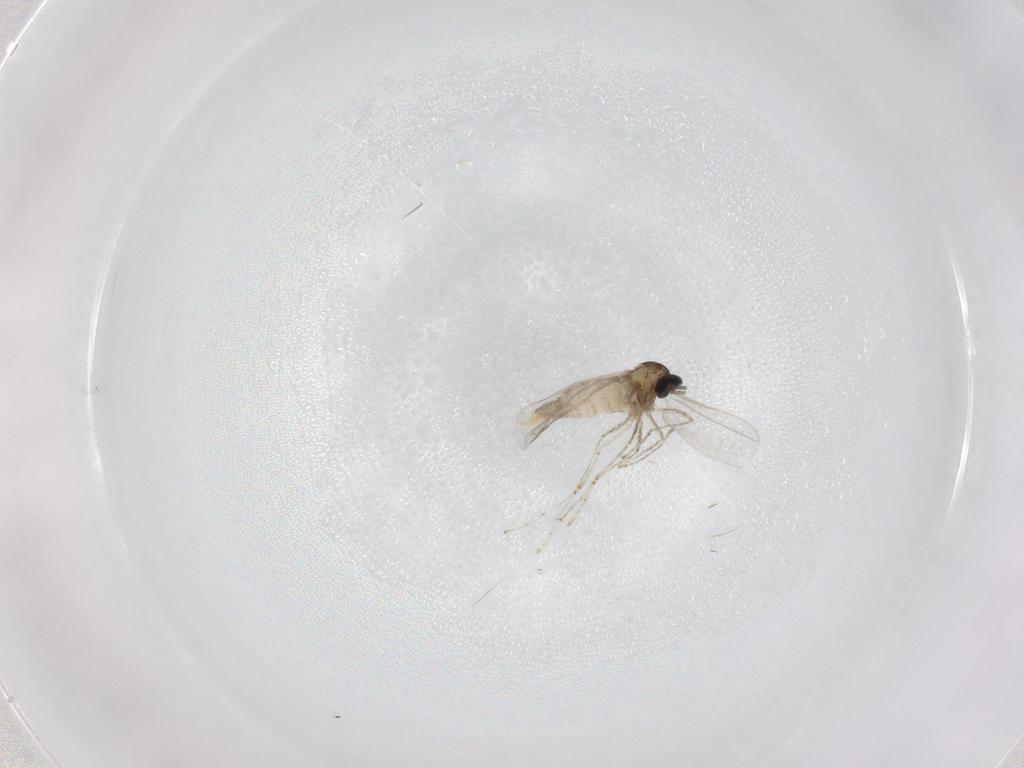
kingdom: Animalia
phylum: Arthropoda
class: Insecta
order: Diptera
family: Cecidomyiidae
